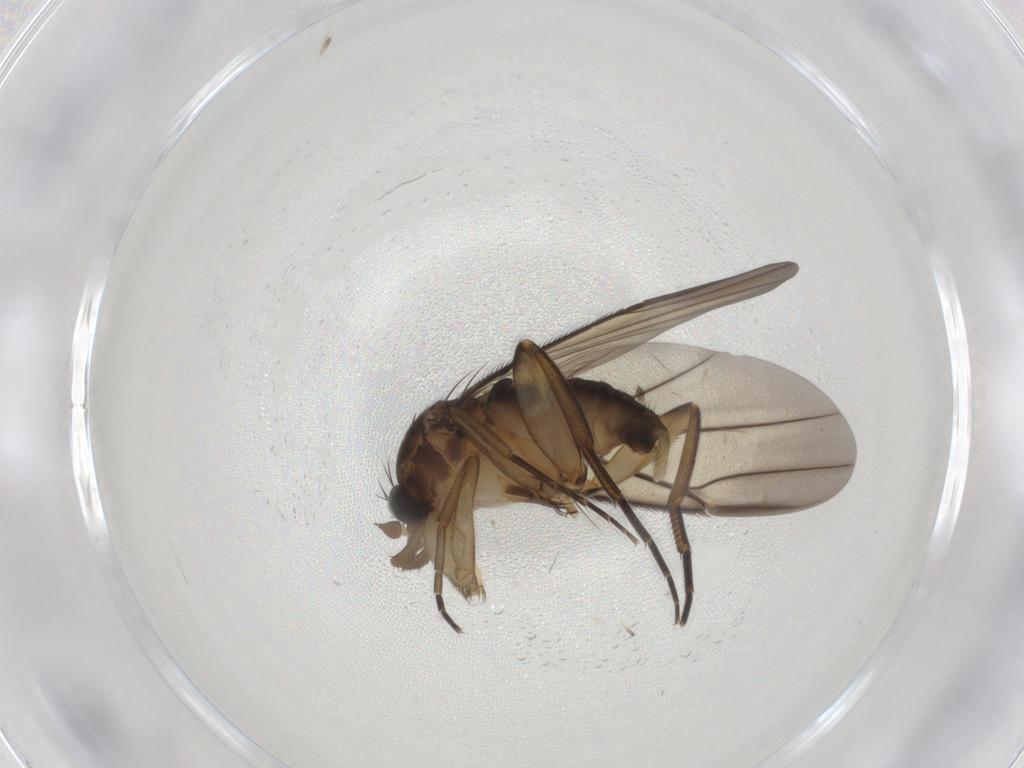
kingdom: Animalia
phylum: Arthropoda
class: Insecta
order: Diptera
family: Phoridae
